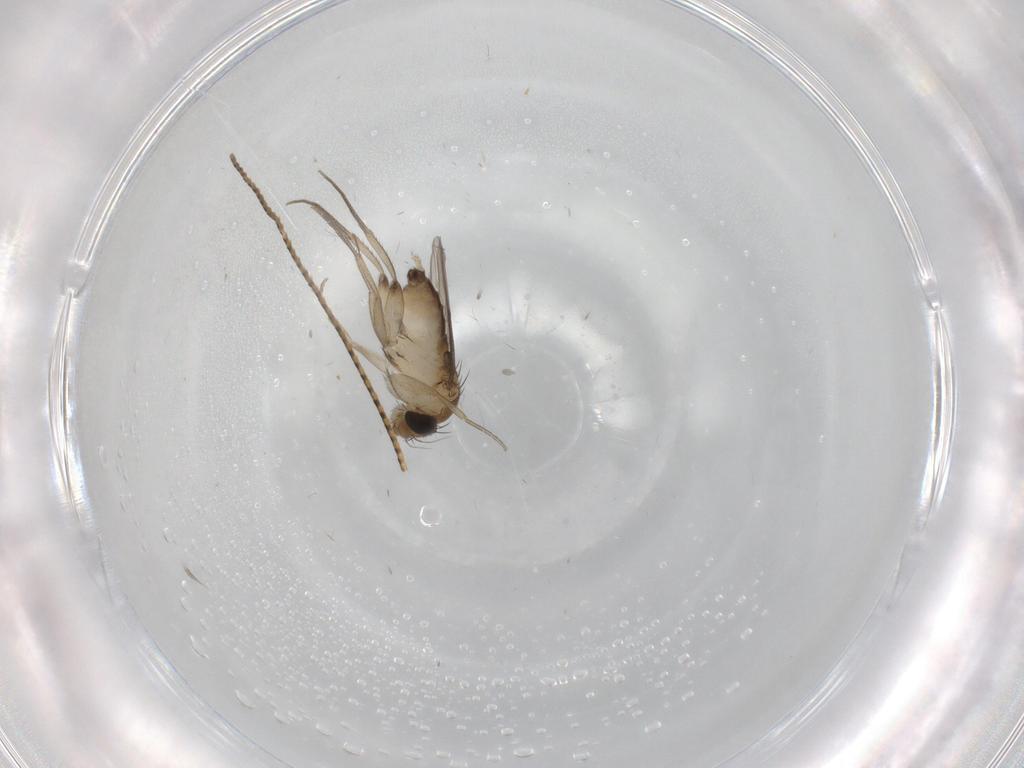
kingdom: Animalia
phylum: Arthropoda
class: Insecta
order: Diptera
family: Phoridae
